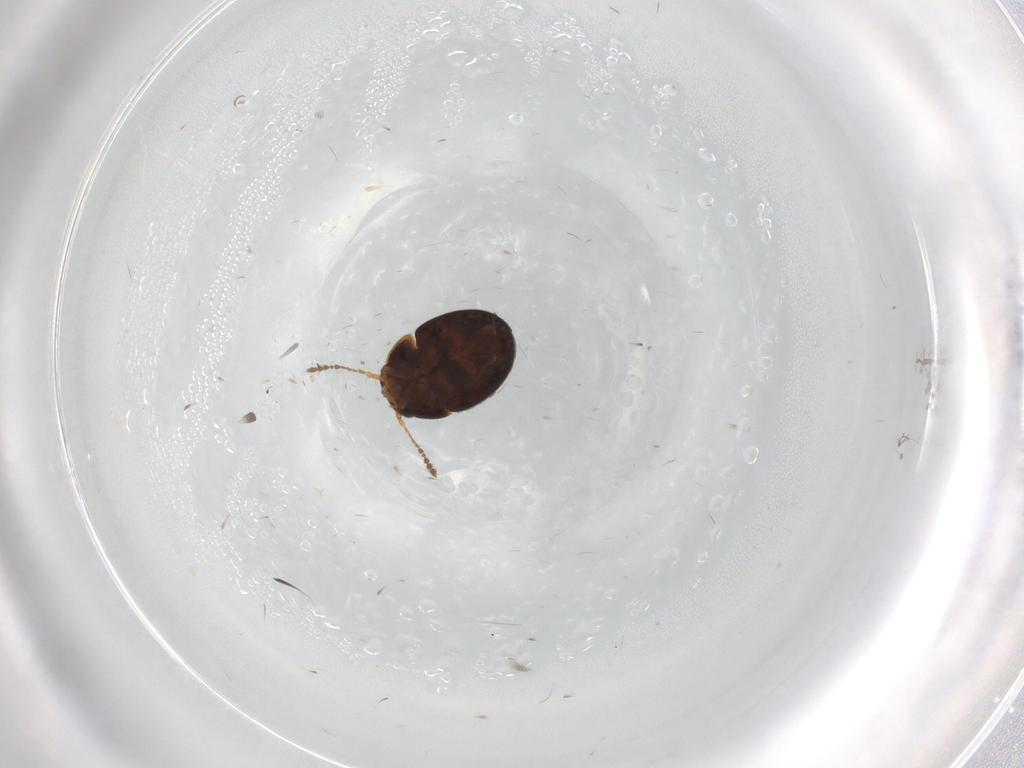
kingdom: Animalia
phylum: Arthropoda
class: Insecta
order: Coleoptera
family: Leiodidae
